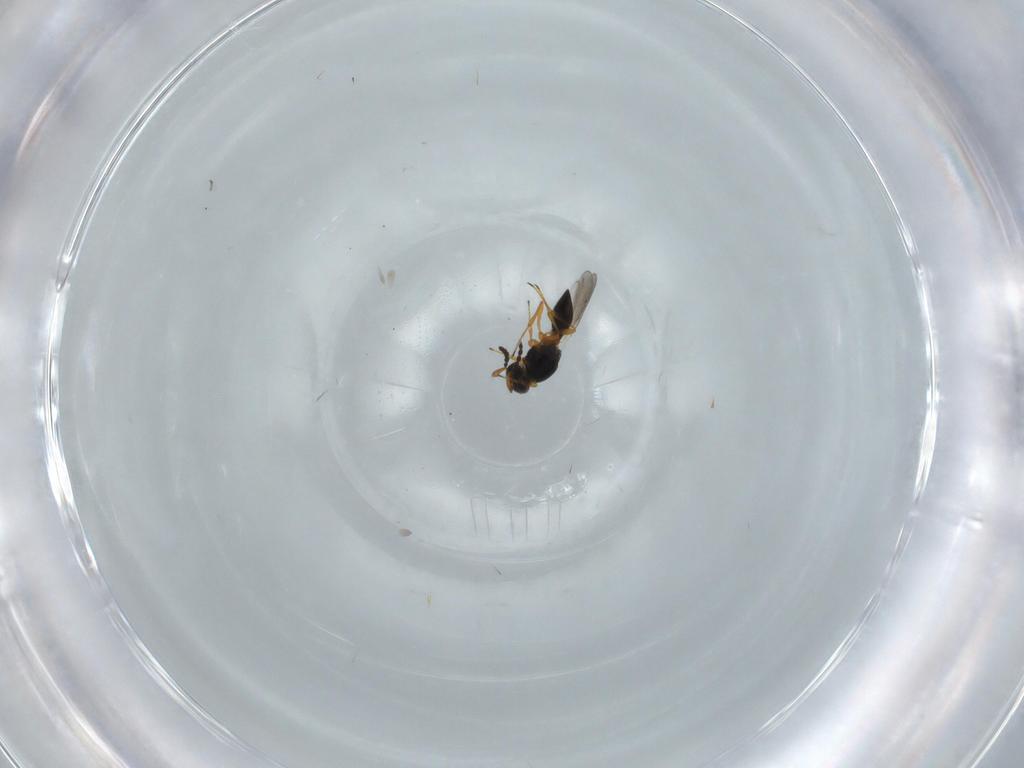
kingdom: Animalia
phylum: Arthropoda
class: Insecta
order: Hymenoptera
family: Platygastridae
